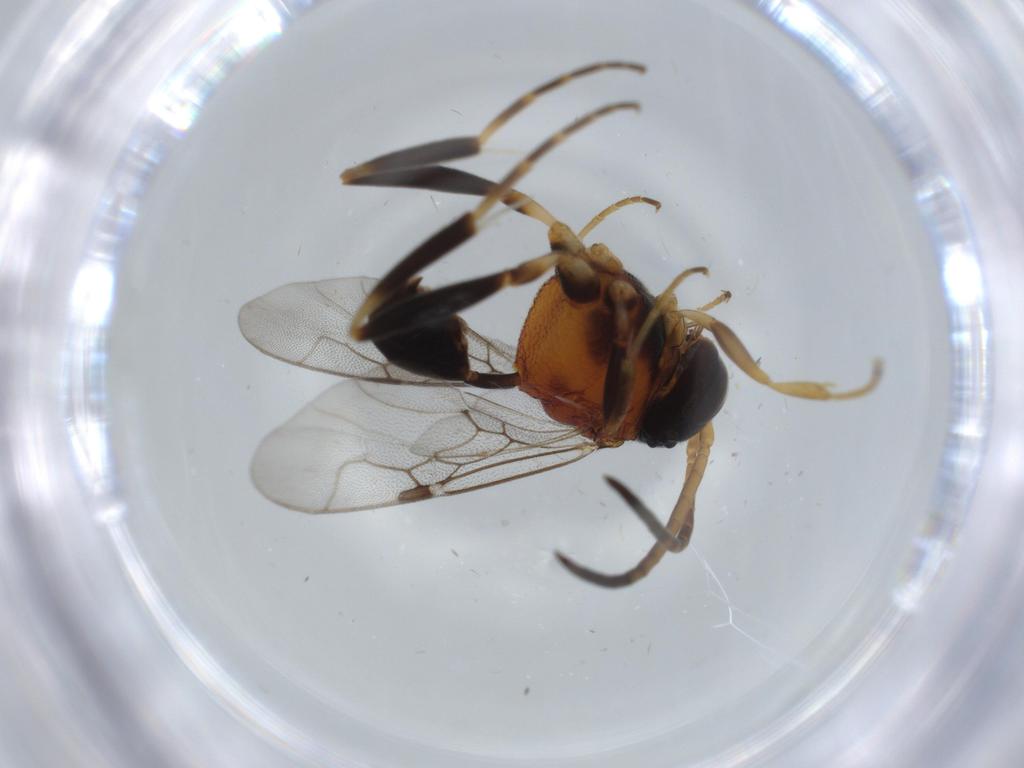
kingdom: Animalia
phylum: Arthropoda
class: Insecta
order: Hymenoptera
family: Evaniidae
